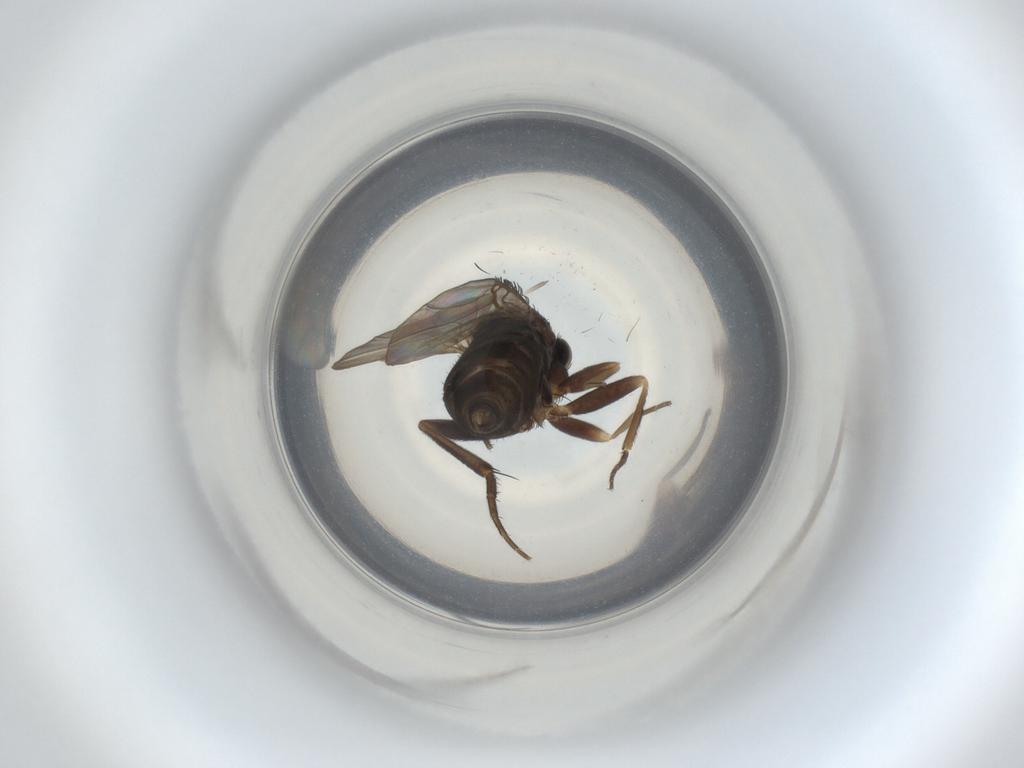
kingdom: Animalia
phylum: Arthropoda
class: Insecta
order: Diptera
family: Phoridae
